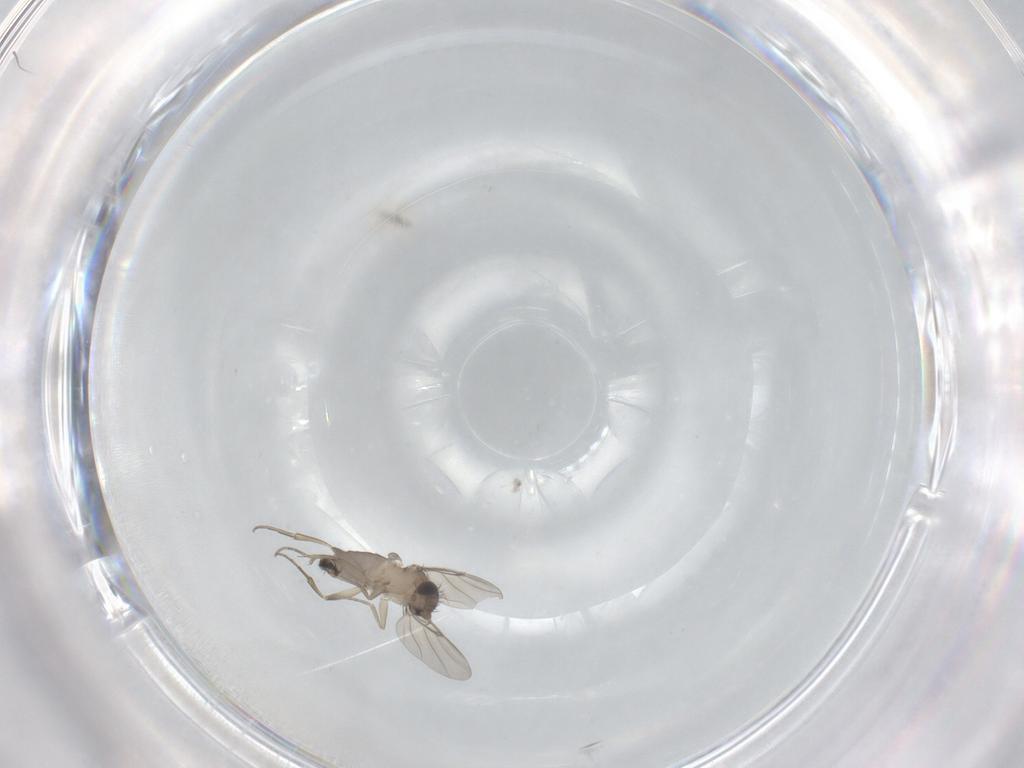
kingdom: Animalia
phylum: Arthropoda
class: Insecta
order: Diptera
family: Phoridae
